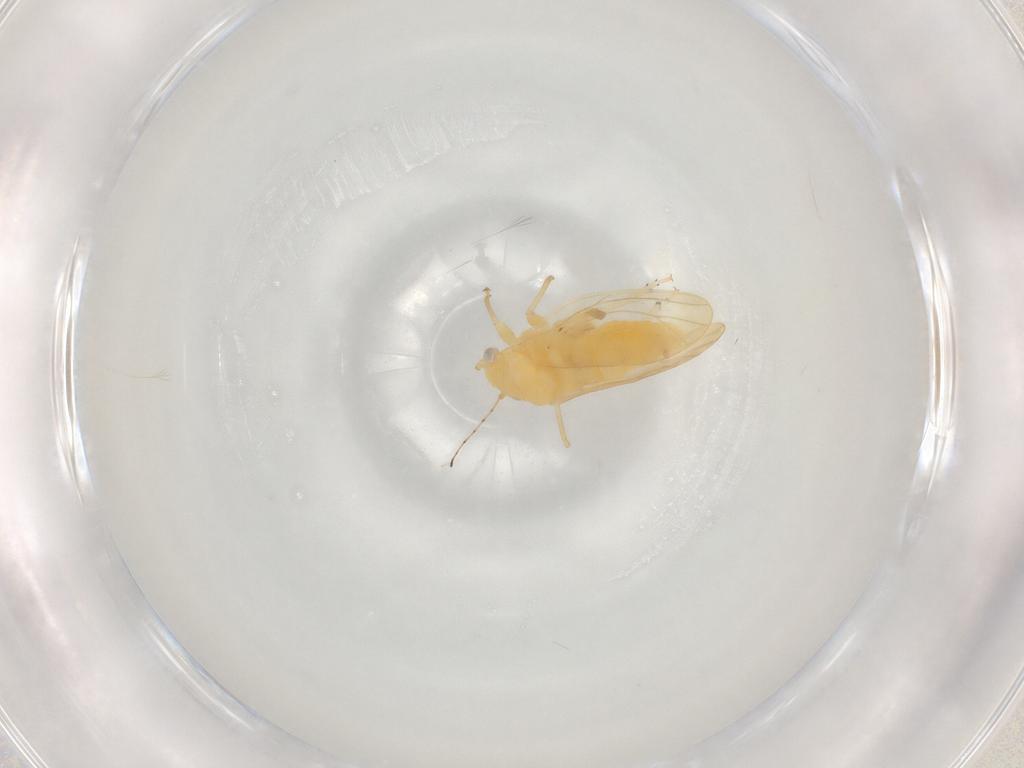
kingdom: Animalia
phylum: Arthropoda
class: Insecta
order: Hemiptera
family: Psylloidea_incertae_sedis
